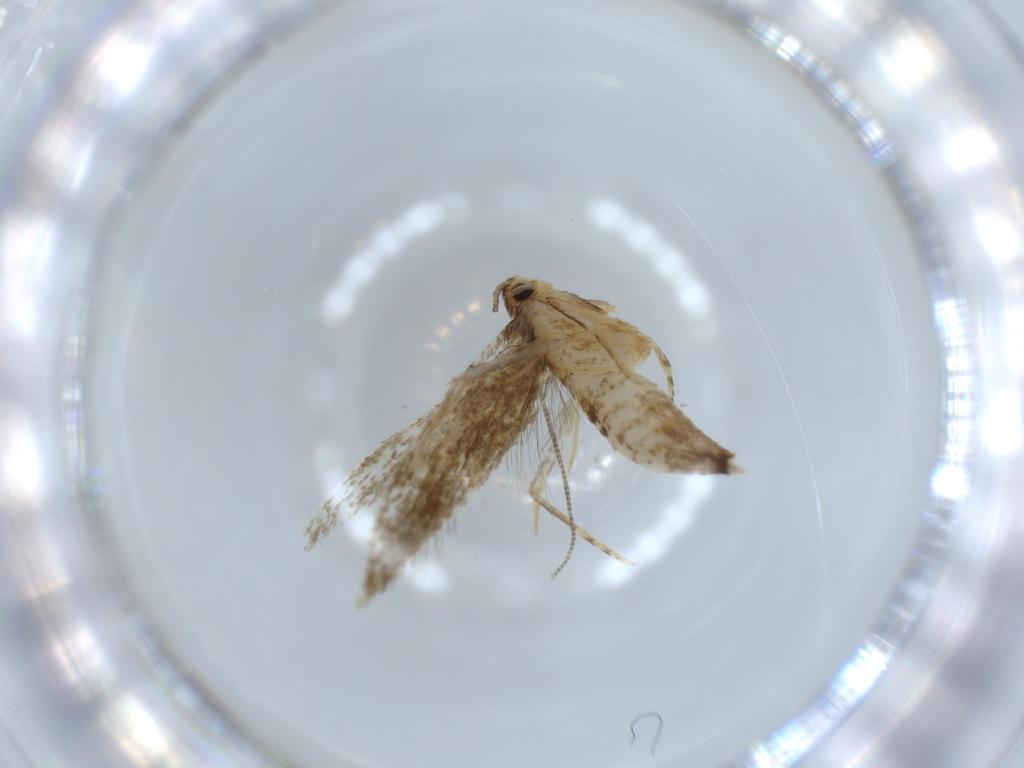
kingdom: Animalia
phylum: Arthropoda
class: Insecta
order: Lepidoptera
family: Tineidae
